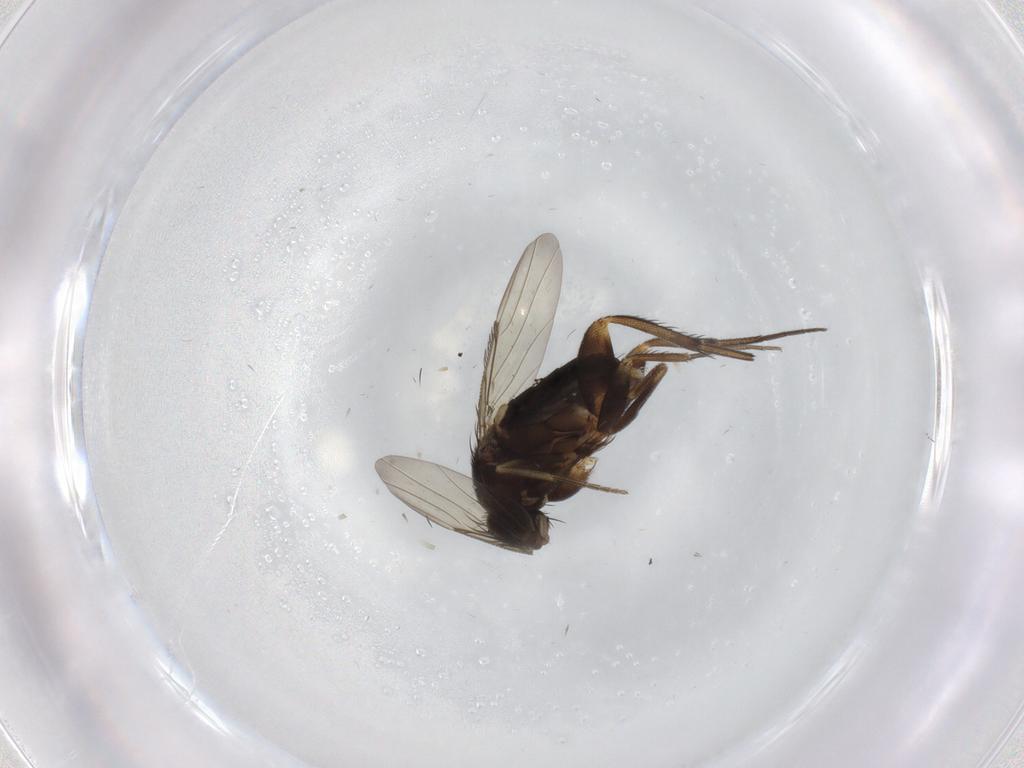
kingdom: Animalia
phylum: Arthropoda
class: Insecta
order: Diptera
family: Phoridae
